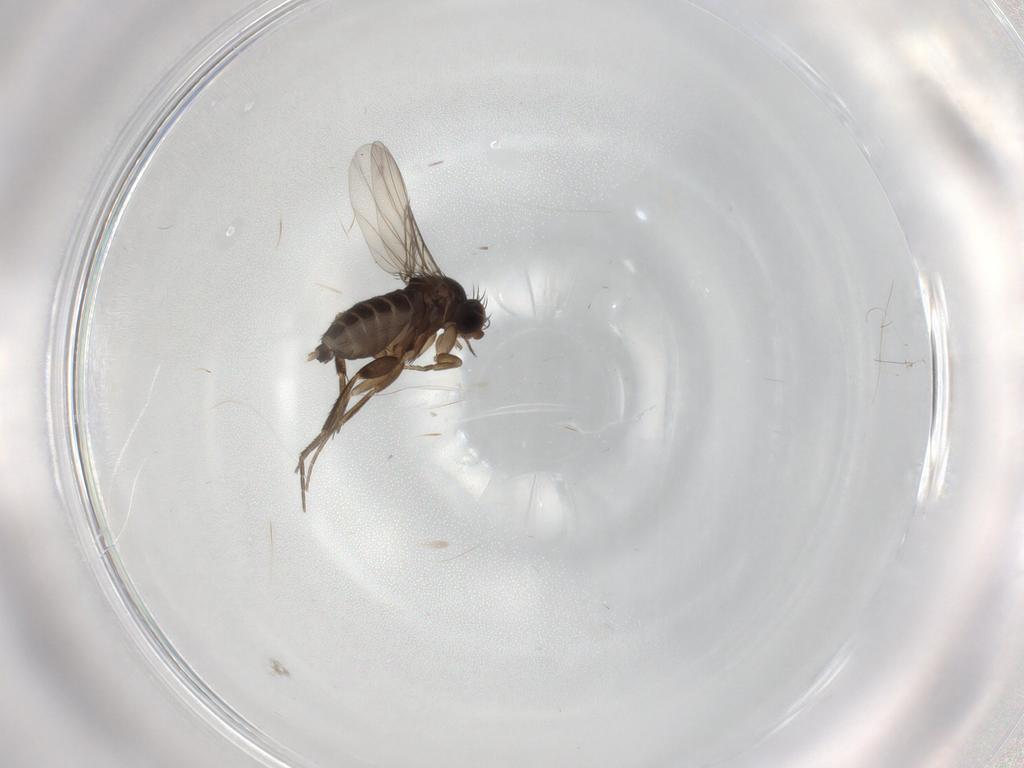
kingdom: Animalia
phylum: Arthropoda
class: Insecta
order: Diptera
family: Phoridae
